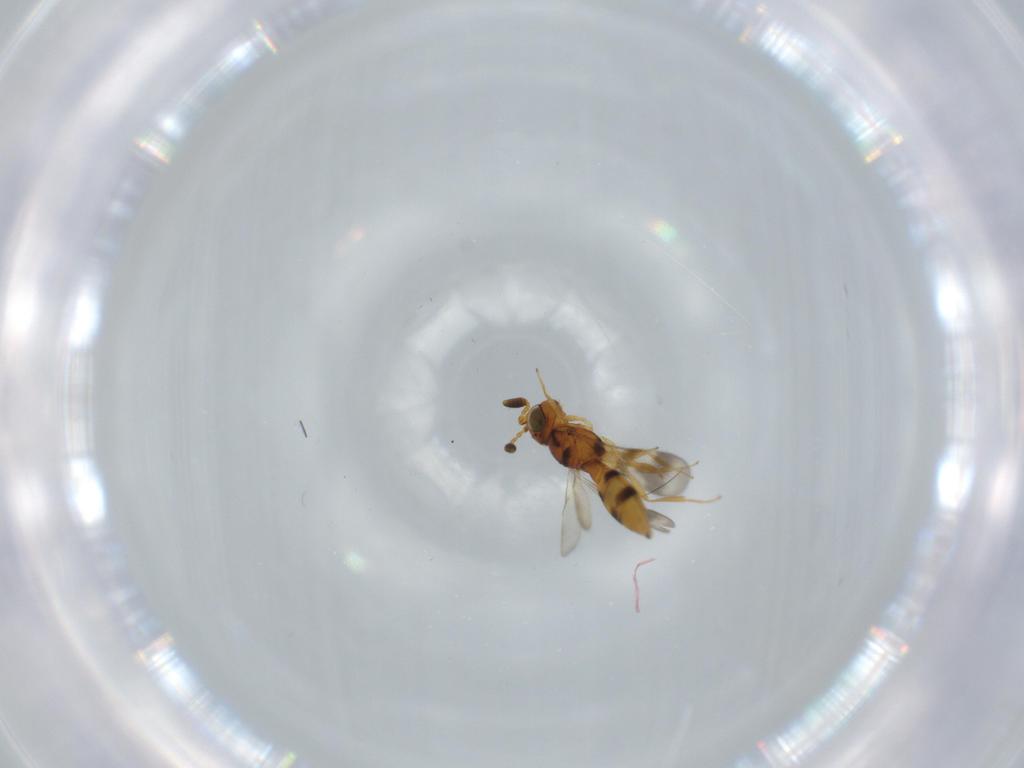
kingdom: Animalia
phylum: Arthropoda
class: Insecta
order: Hymenoptera
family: Scelionidae
